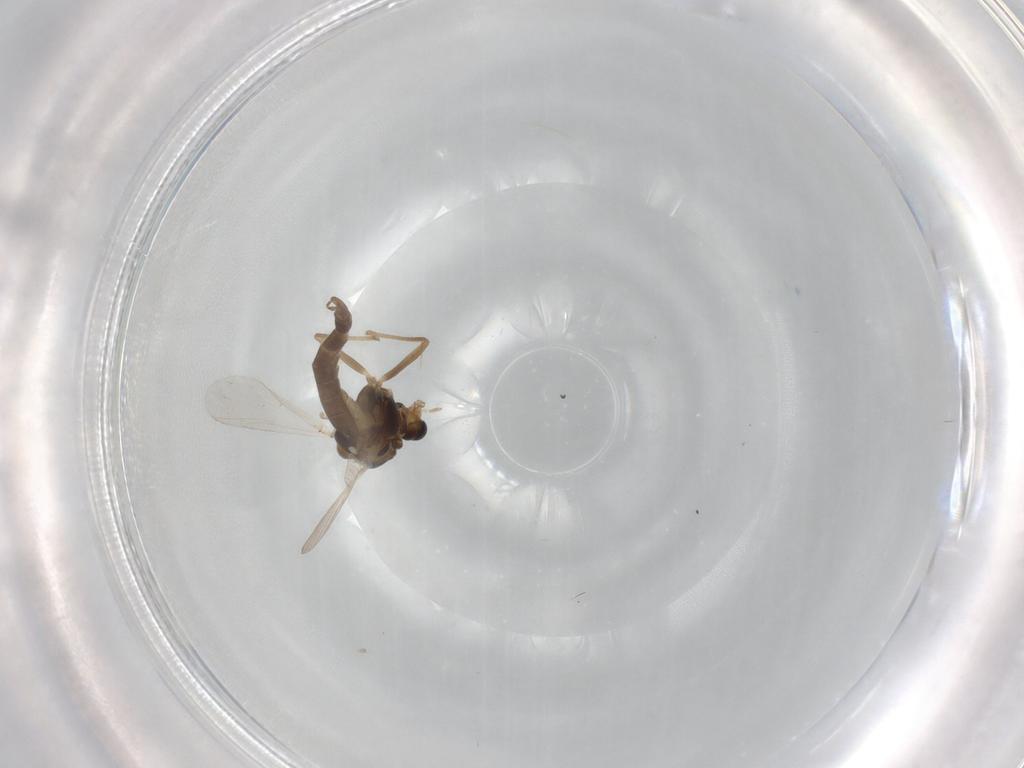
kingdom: Animalia
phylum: Arthropoda
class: Insecta
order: Diptera
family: Chironomidae
